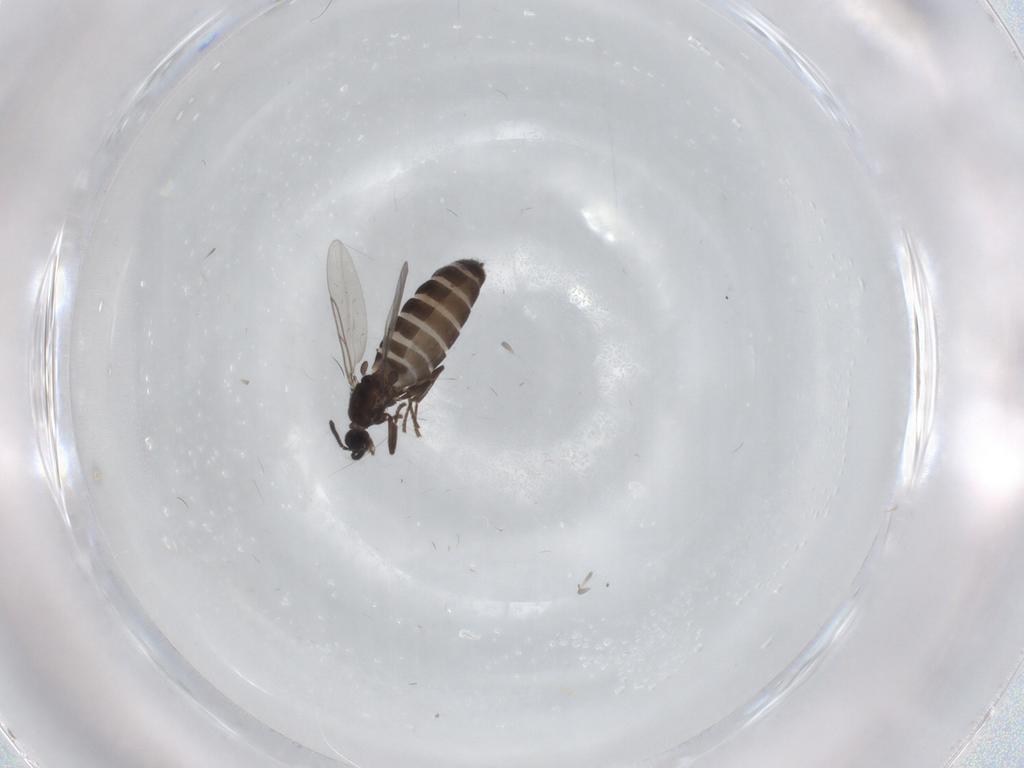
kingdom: Animalia
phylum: Arthropoda
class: Insecta
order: Diptera
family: Scatopsidae
